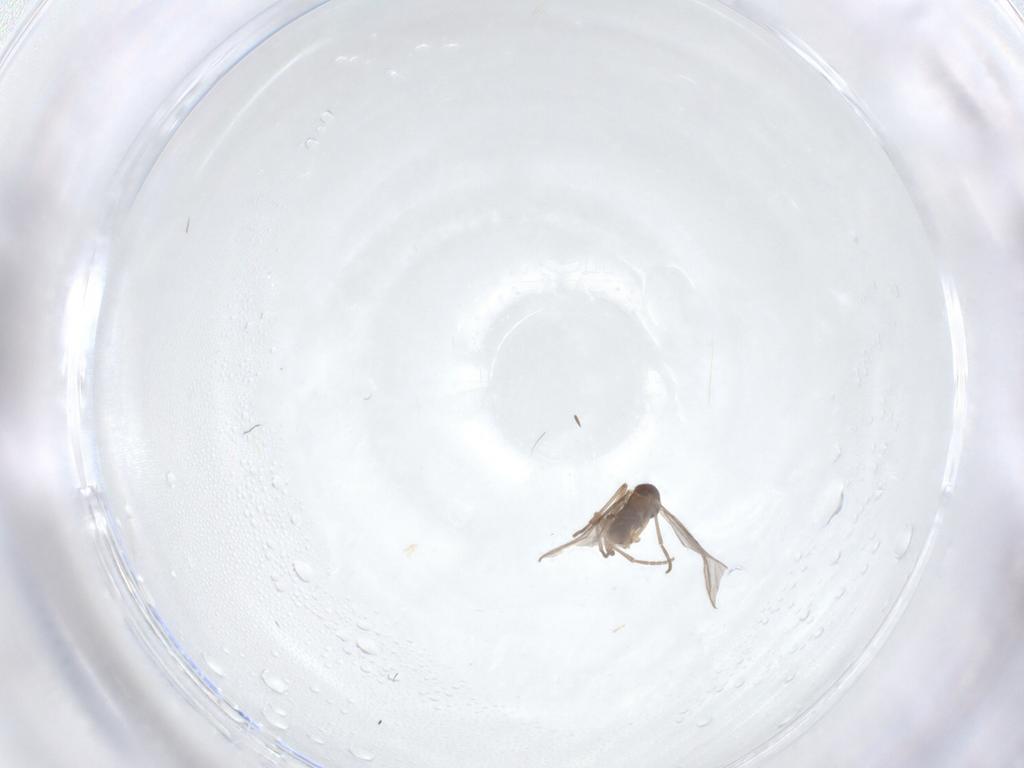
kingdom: Animalia
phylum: Arthropoda
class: Insecta
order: Diptera
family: Sciaridae
